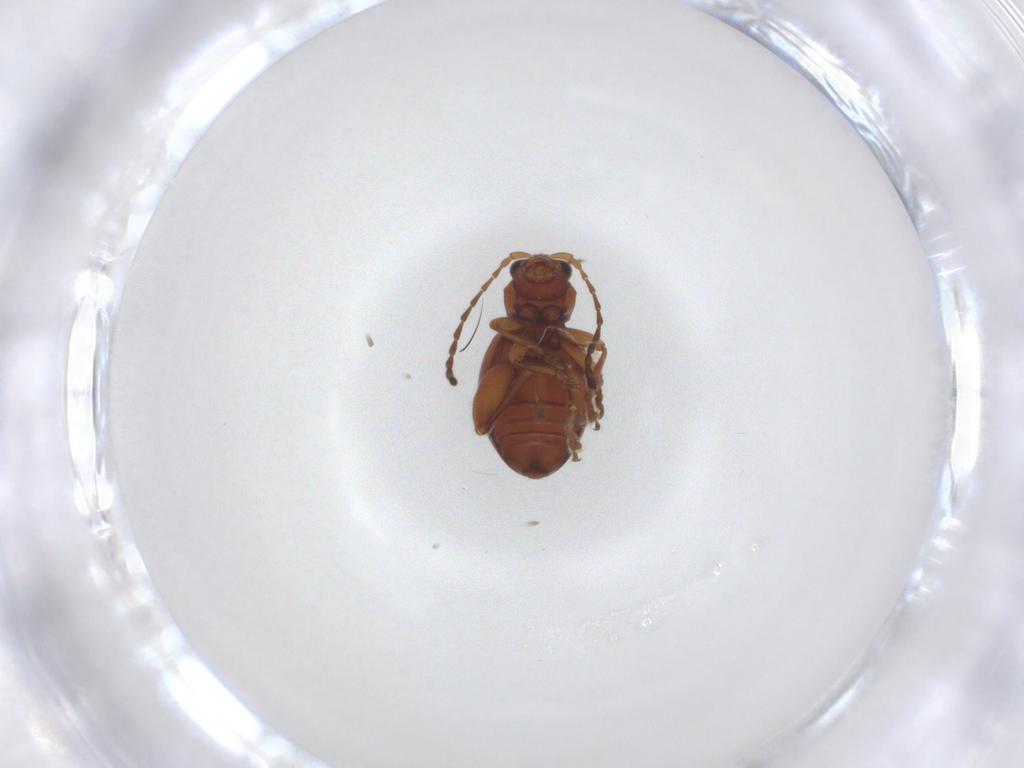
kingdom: Animalia
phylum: Arthropoda
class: Insecta
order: Coleoptera
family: Chrysomelidae
